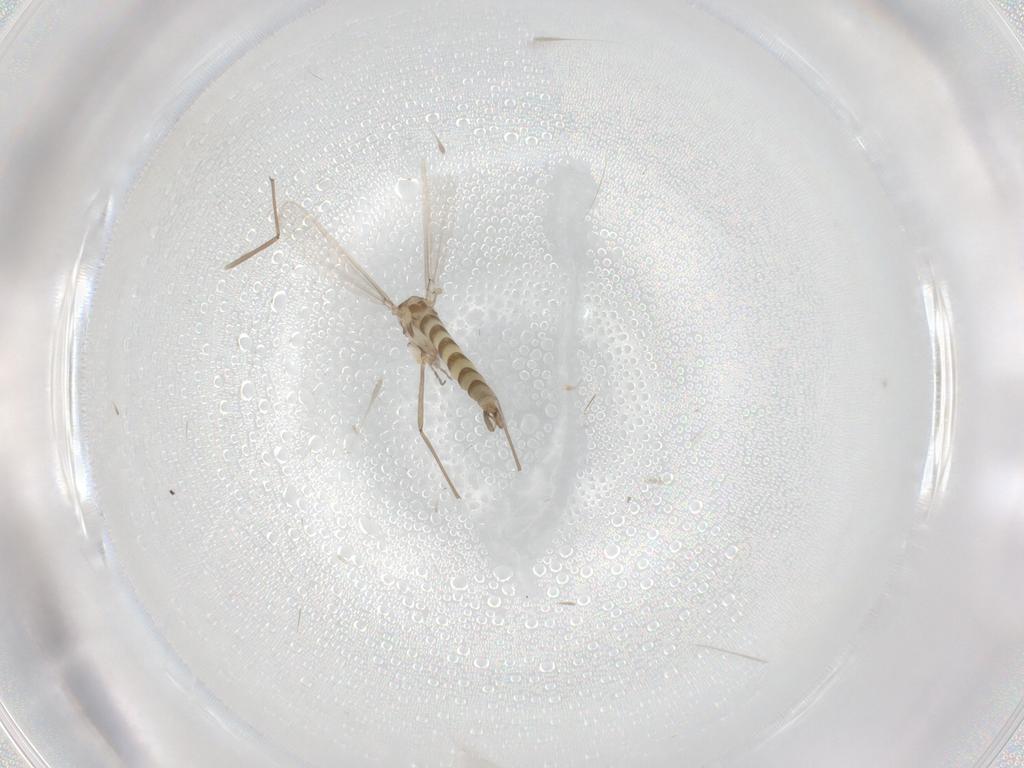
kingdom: Animalia
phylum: Arthropoda
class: Insecta
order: Diptera
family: Chironomidae
